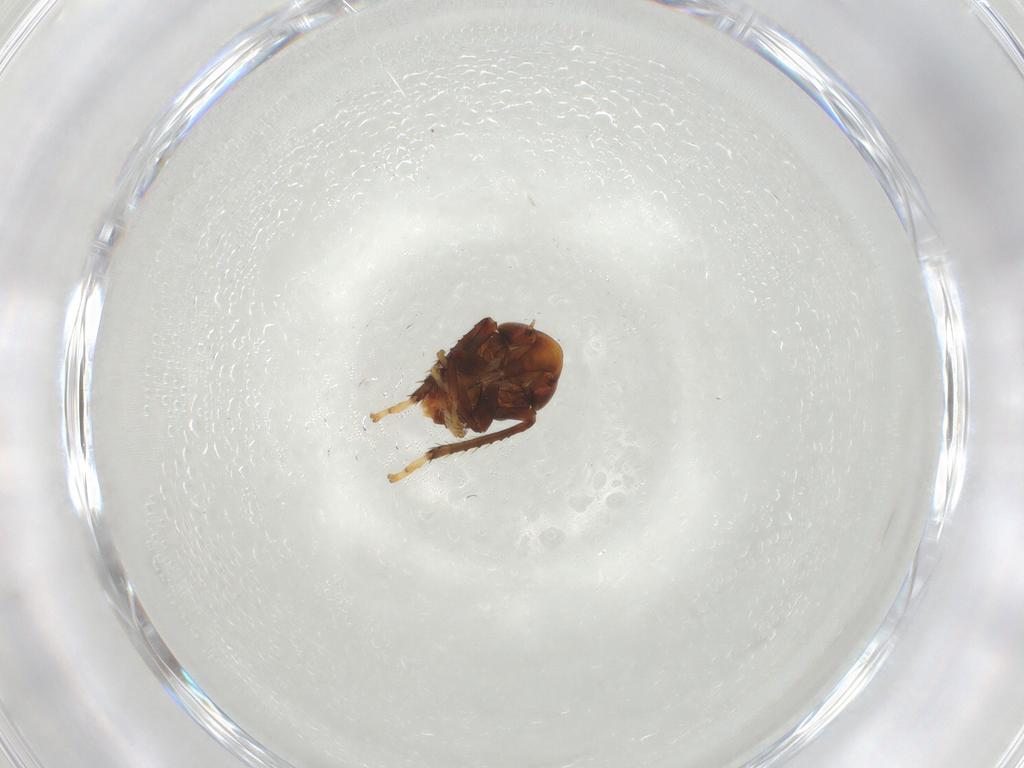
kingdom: Animalia
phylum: Arthropoda
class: Insecta
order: Hemiptera
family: Cicadellidae
